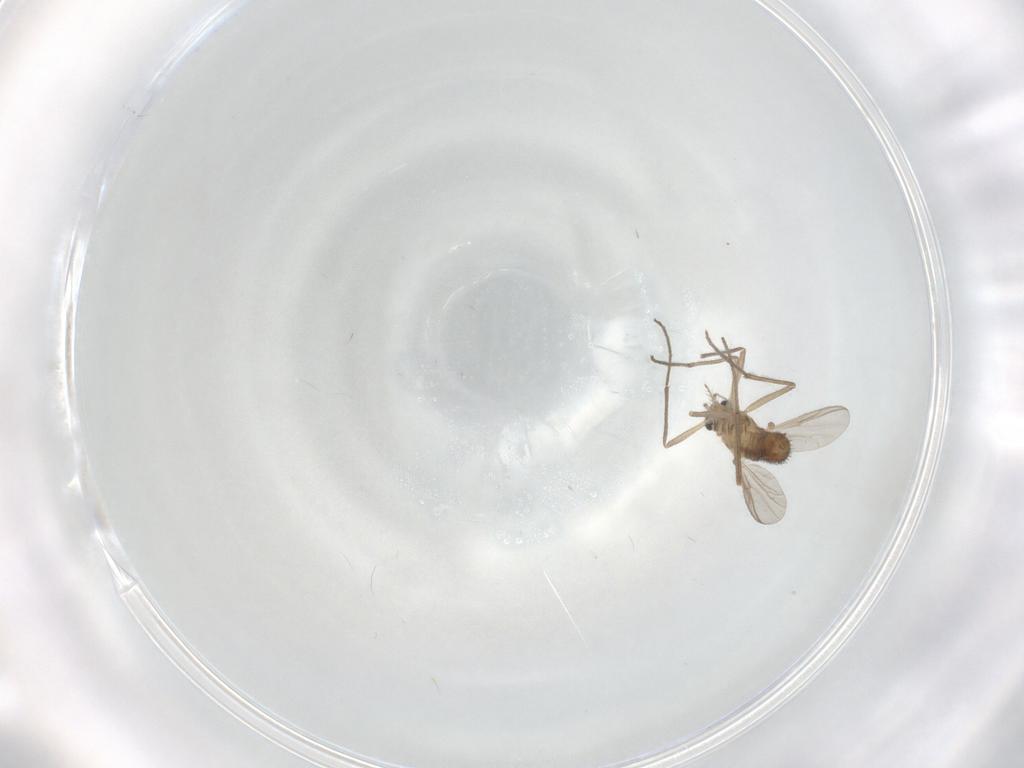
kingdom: Animalia
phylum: Arthropoda
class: Insecta
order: Diptera
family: Chironomidae
